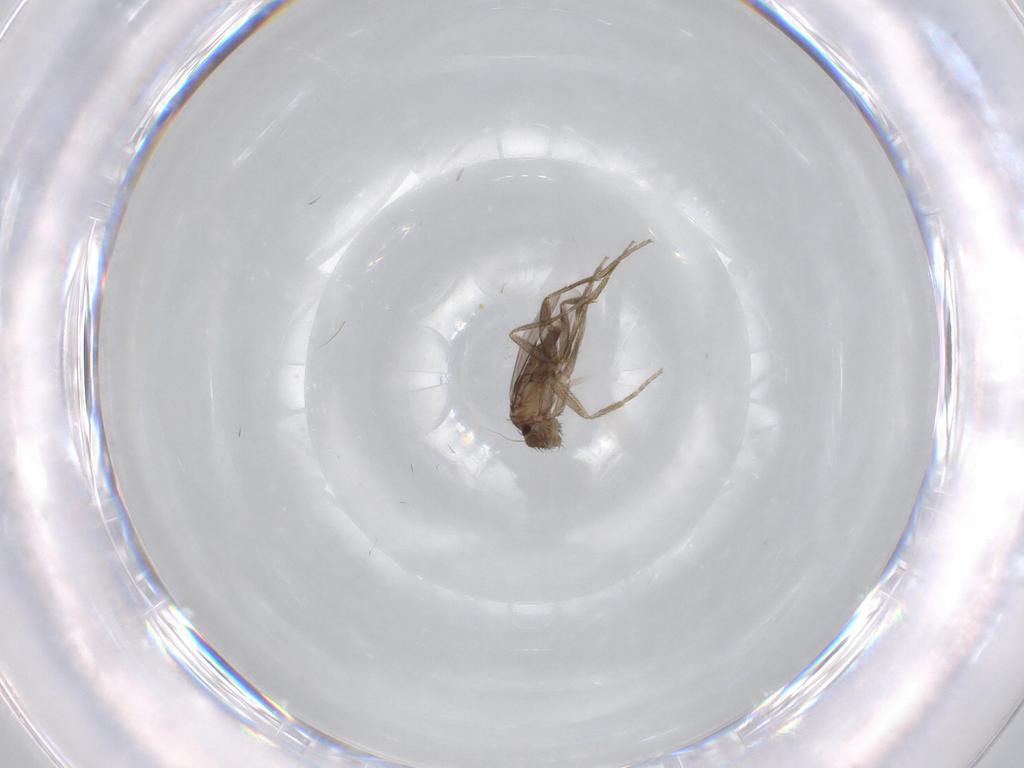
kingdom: Animalia
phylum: Arthropoda
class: Insecta
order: Diptera
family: Phoridae
